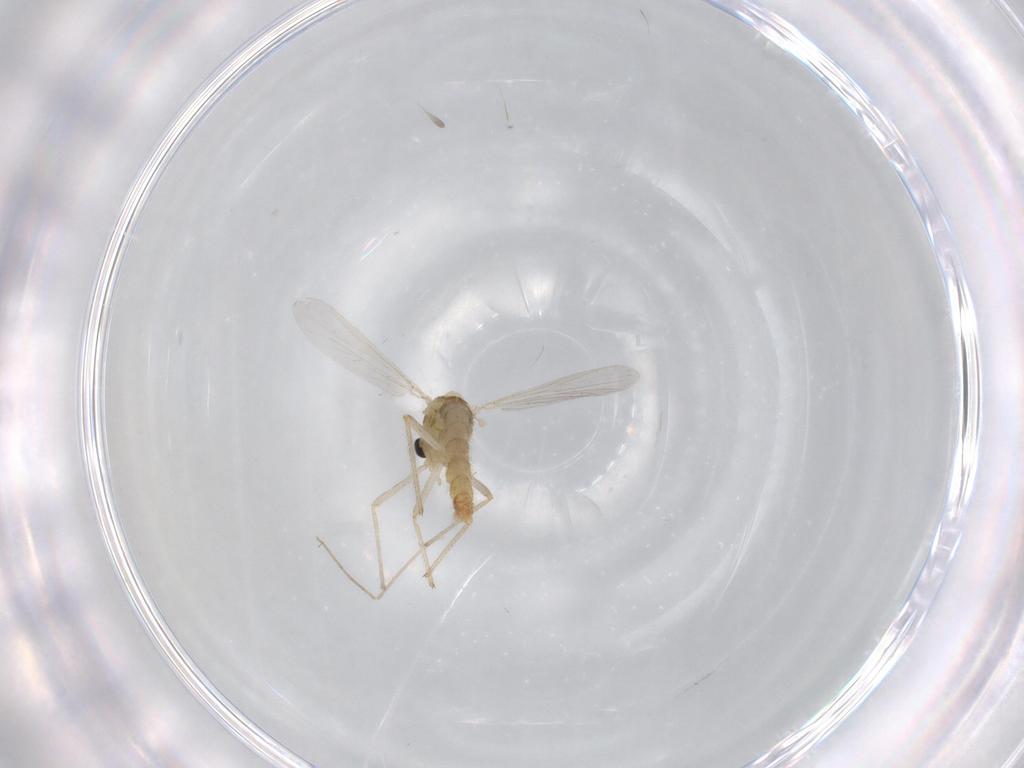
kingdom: Animalia
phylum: Arthropoda
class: Insecta
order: Diptera
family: Chironomidae
